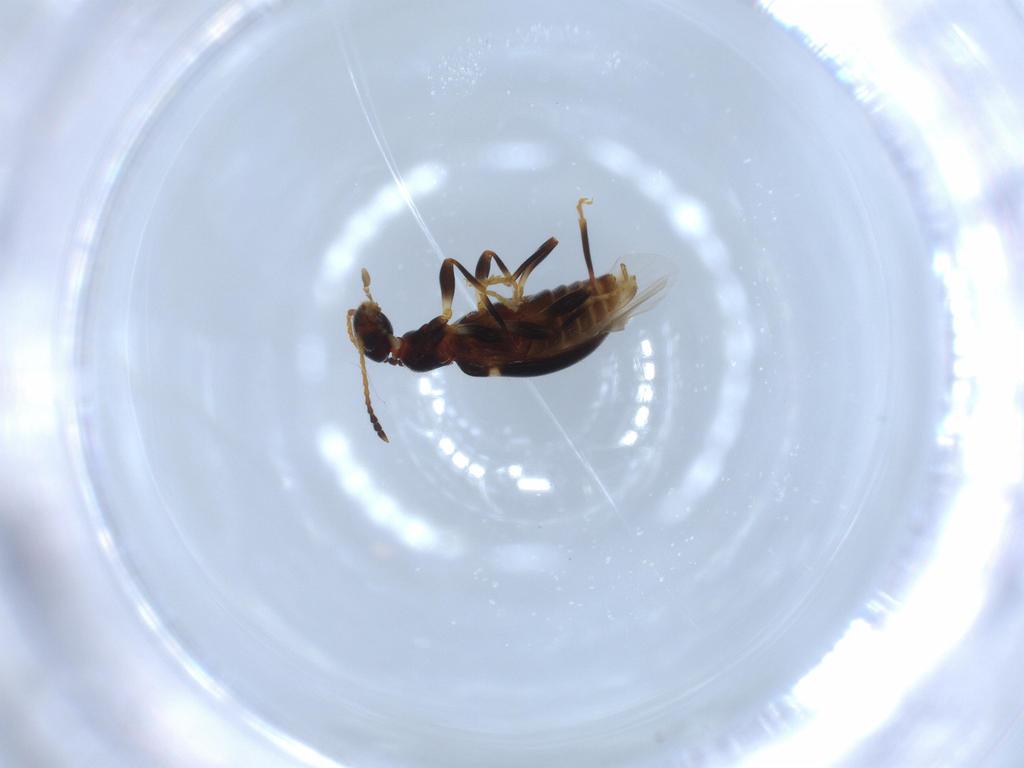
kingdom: Animalia
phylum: Arthropoda
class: Insecta
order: Coleoptera
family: Anthicidae
